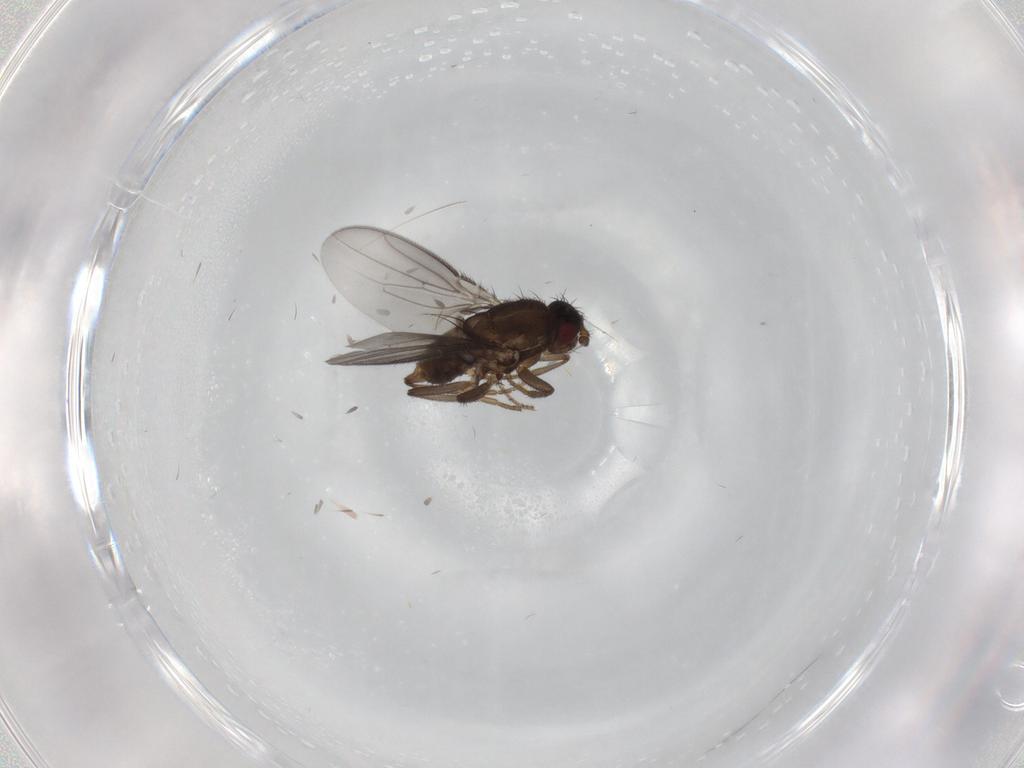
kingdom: Animalia
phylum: Arthropoda
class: Insecta
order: Diptera
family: Sphaeroceridae
